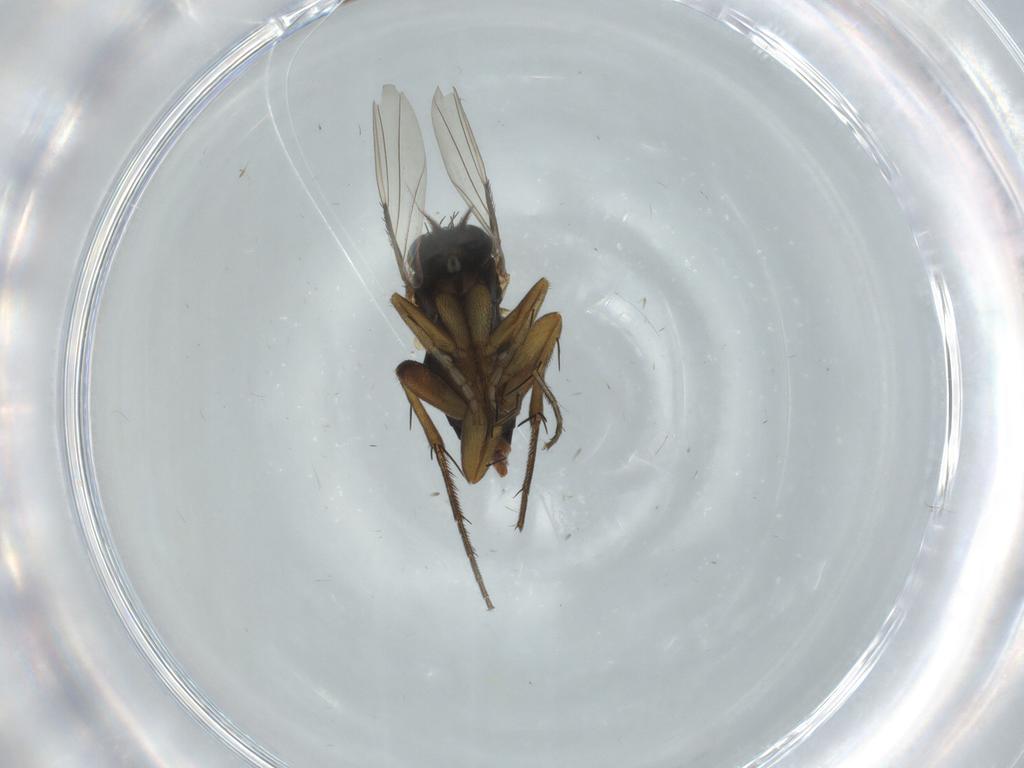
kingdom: Animalia
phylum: Arthropoda
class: Insecta
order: Diptera
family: Phoridae
